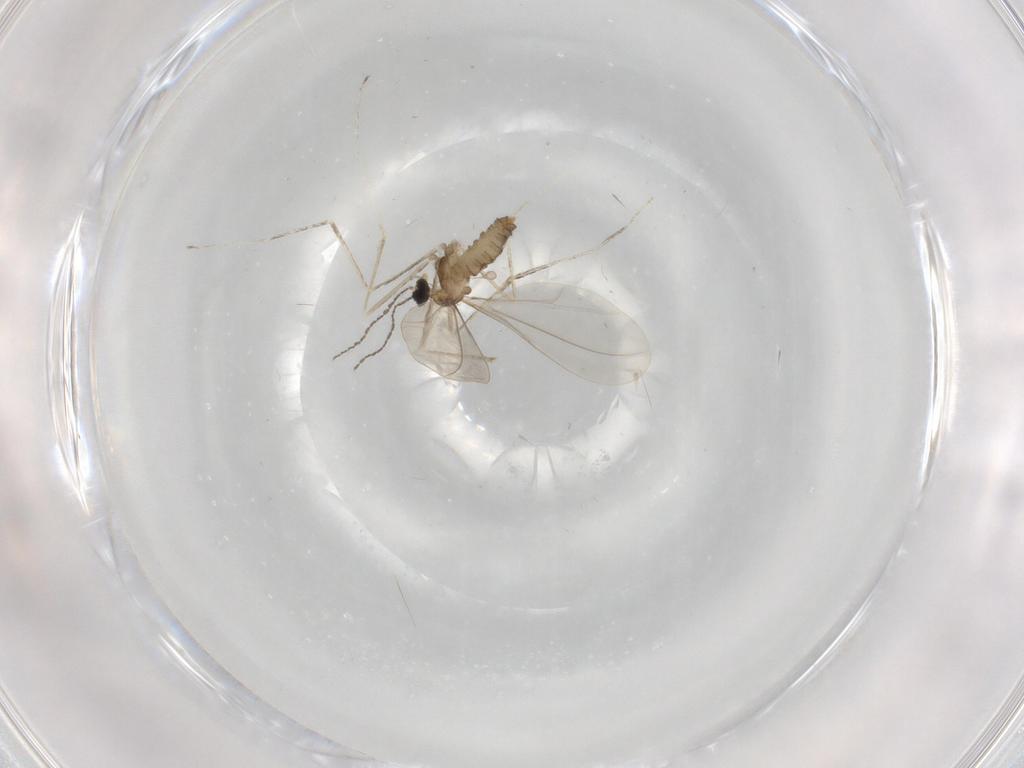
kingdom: Animalia
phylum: Arthropoda
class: Insecta
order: Diptera
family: Cecidomyiidae
